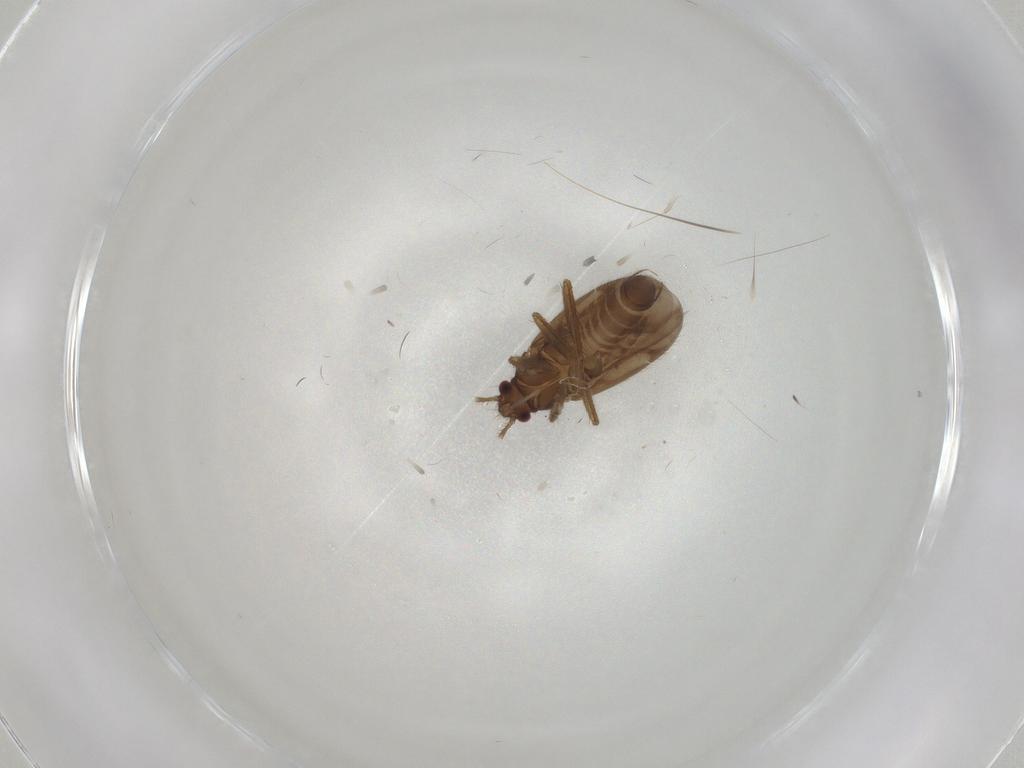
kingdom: Animalia
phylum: Arthropoda
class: Insecta
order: Hemiptera
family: Ceratocombidae
